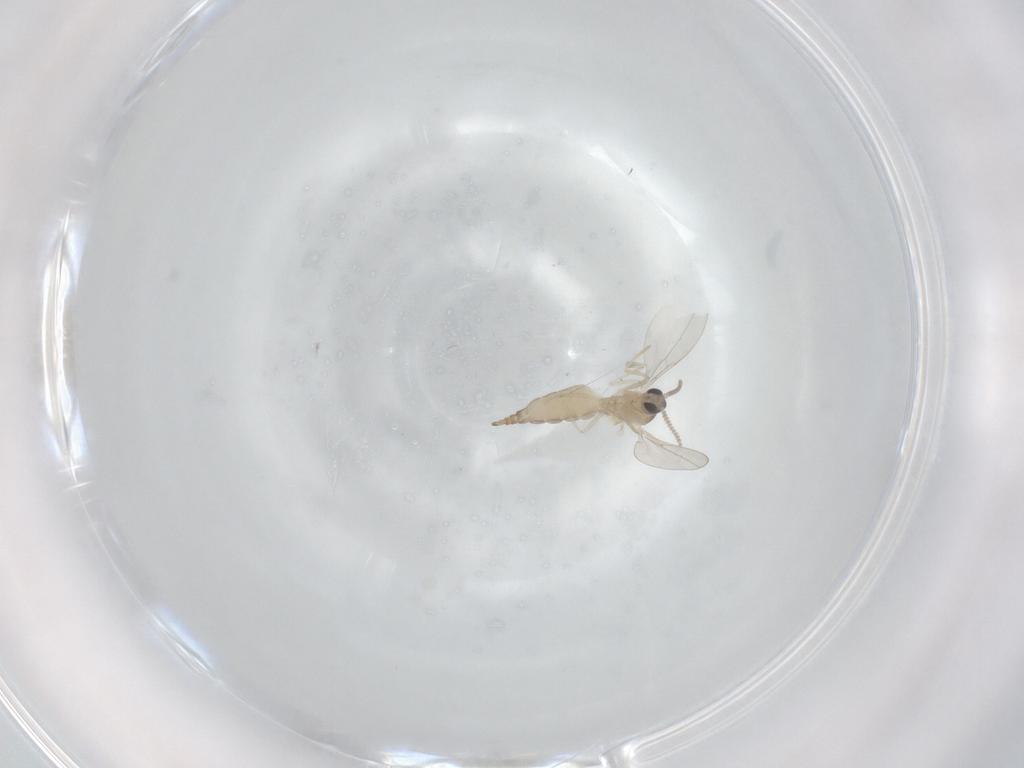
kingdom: Animalia
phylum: Arthropoda
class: Insecta
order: Diptera
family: Cecidomyiidae
